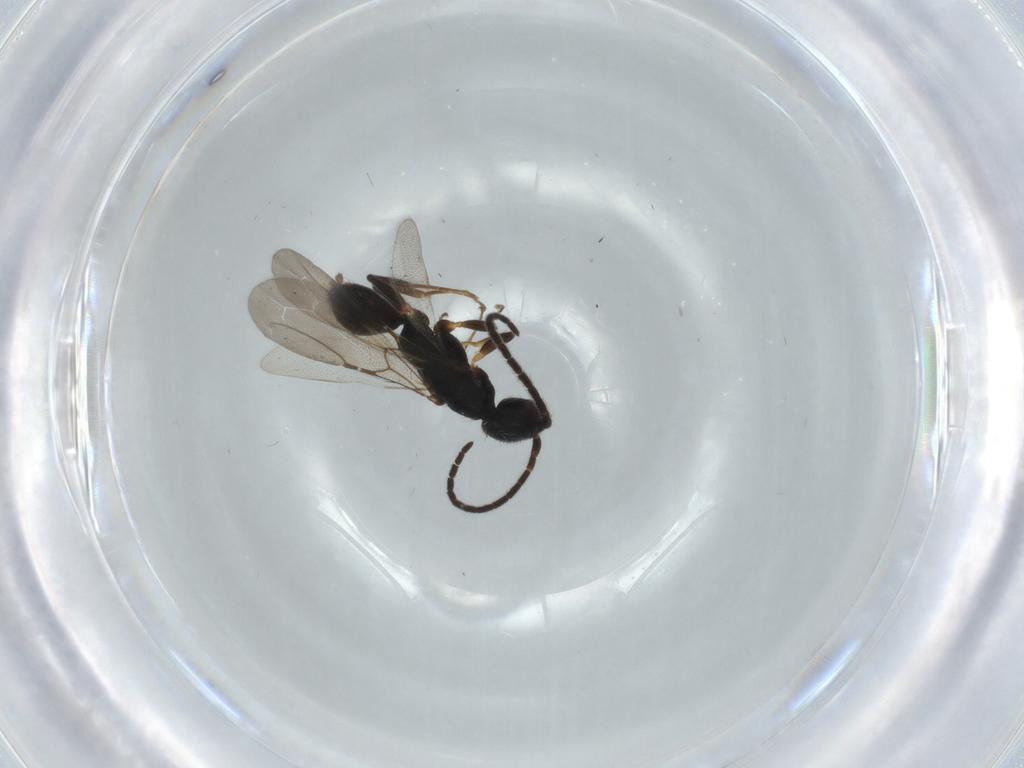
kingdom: Animalia
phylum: Arthropoda
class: Insecta
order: Hymenoptera
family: Bethylidae
